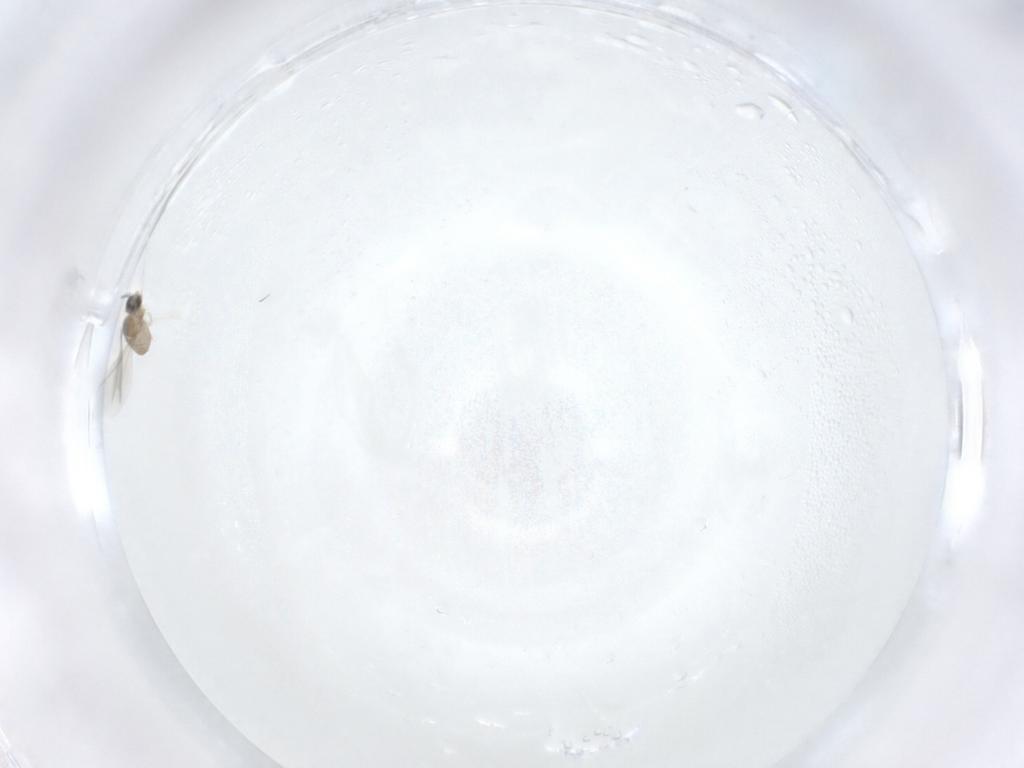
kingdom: Animalia
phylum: Arthropoda
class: Insecta
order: Diptera
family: Cecidomyiidae
